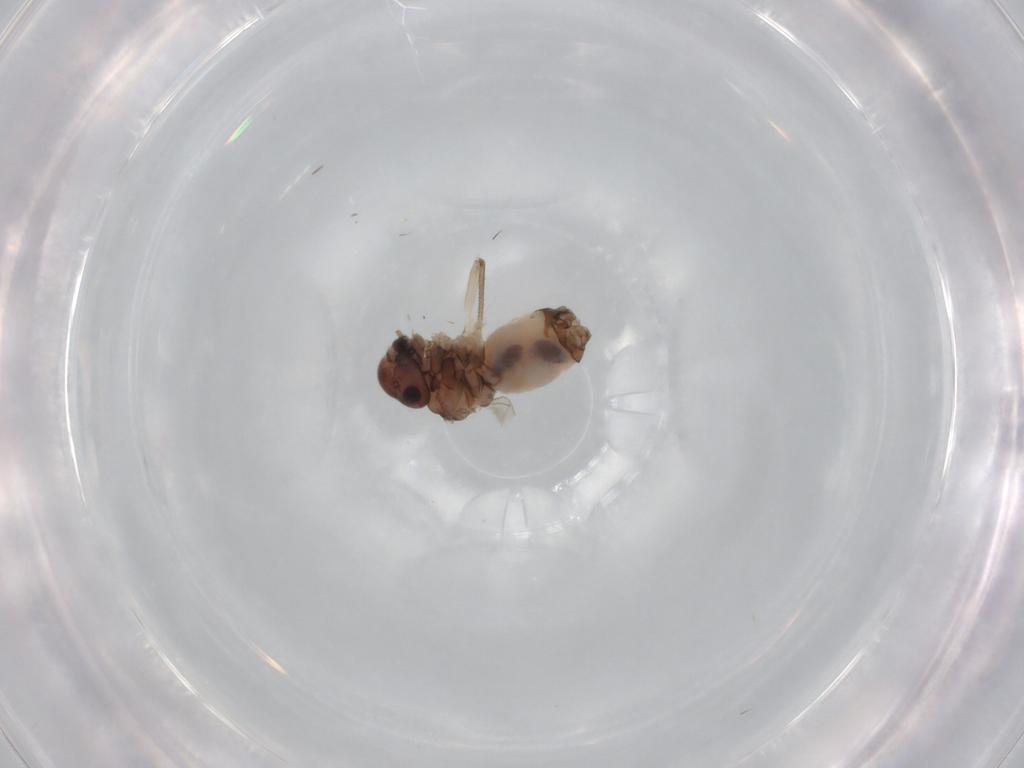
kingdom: Animalia
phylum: Arthropoda
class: Insecta
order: Psocodea
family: Peripsocidae
